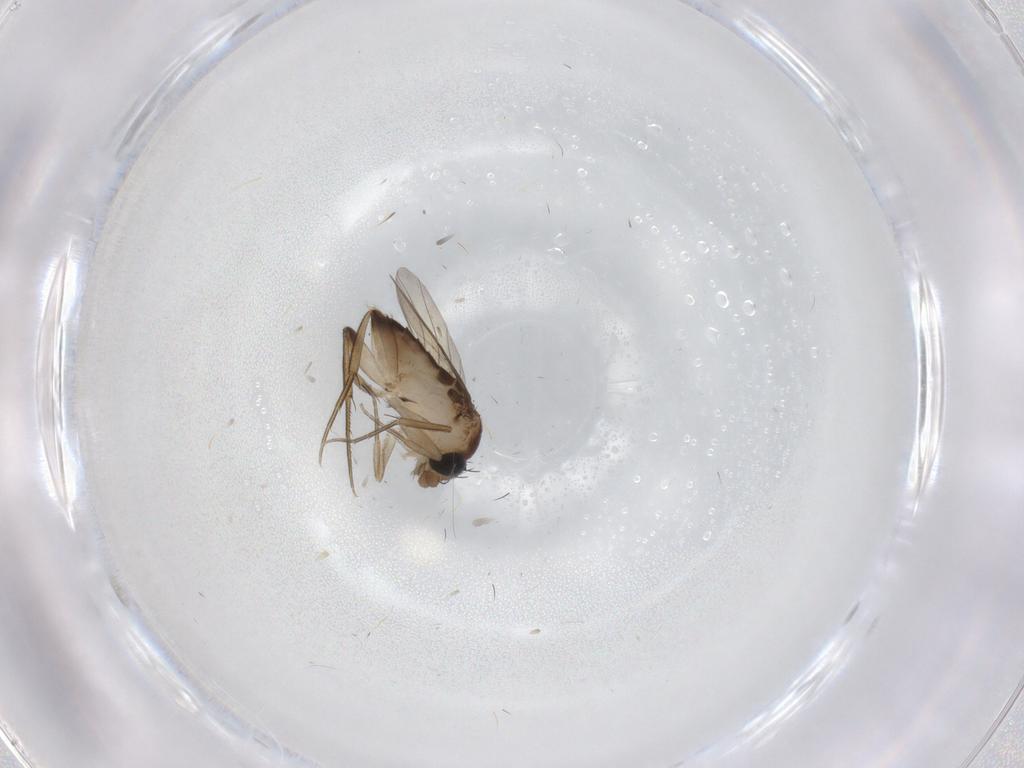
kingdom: Animalia
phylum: Arthropoda
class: Insecta
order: Diptera
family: Phoridae
